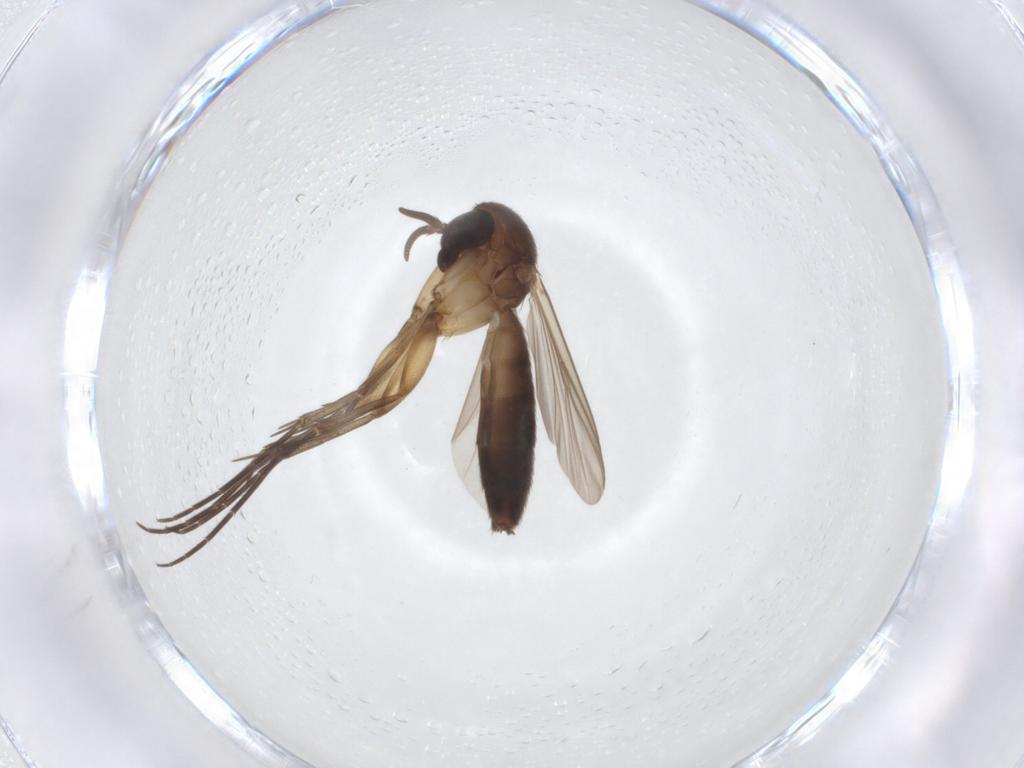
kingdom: Animalia
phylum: Arthropoda
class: Insecta
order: Diptera
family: Mycetophilidae
